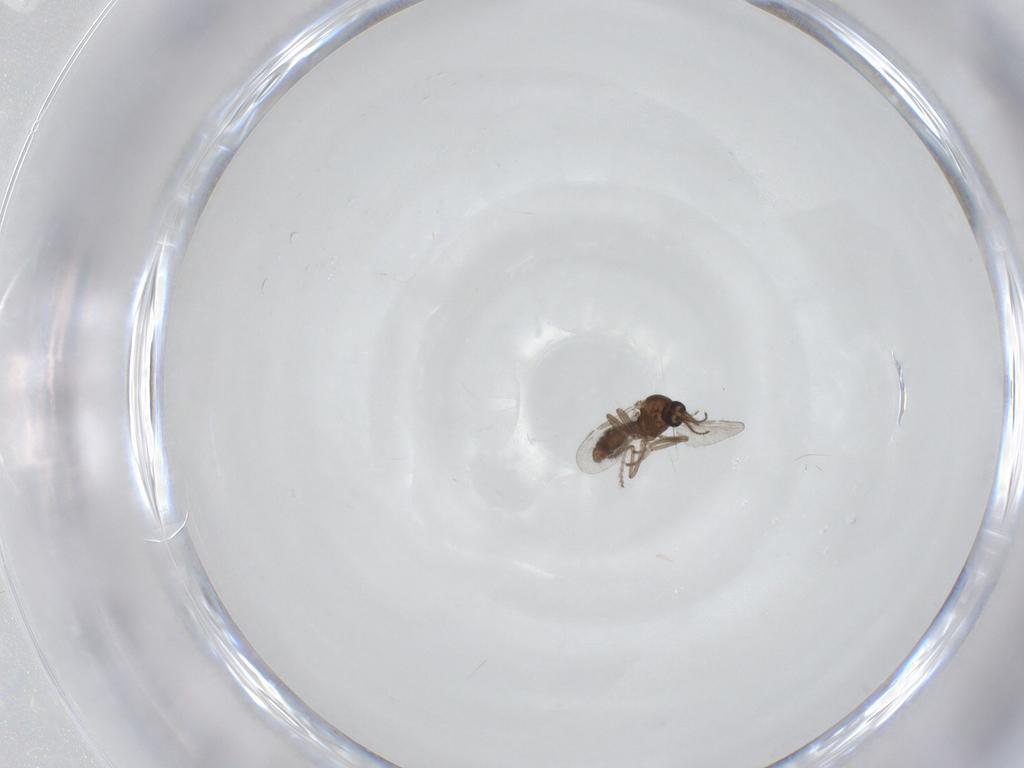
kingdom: Animalia
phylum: Arthropoda
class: Insecta
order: Diptera
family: Ceratopogonidae
